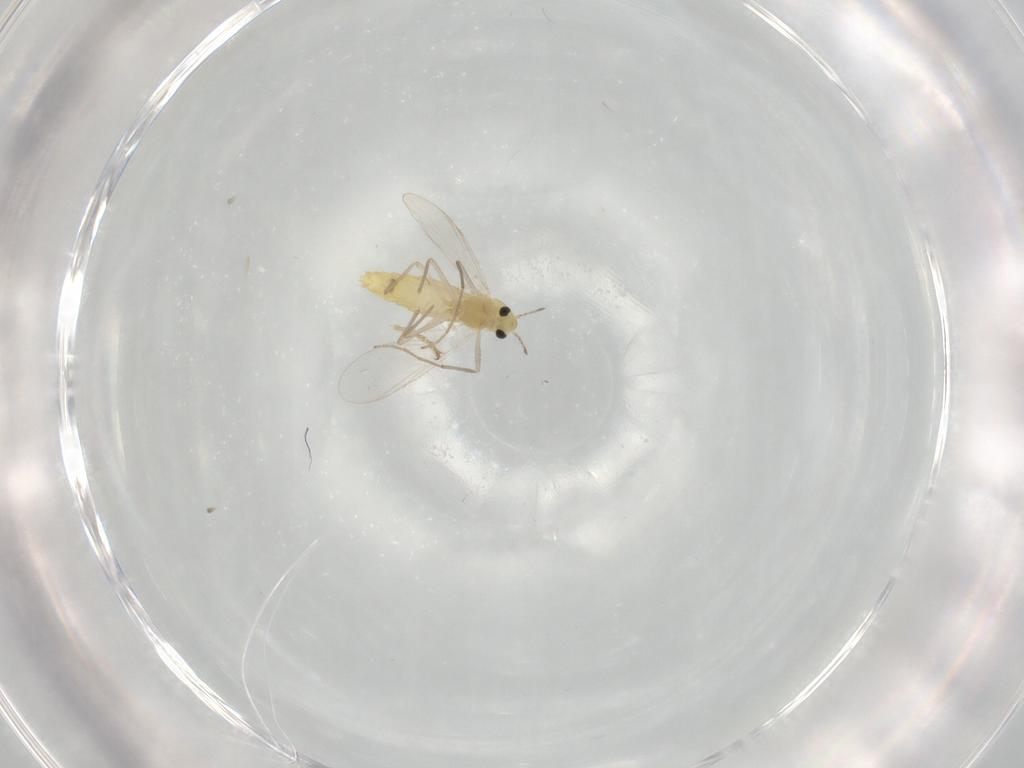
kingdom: Animalia
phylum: Arthropoda
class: Insecta
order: Diptera
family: Chironomidae
